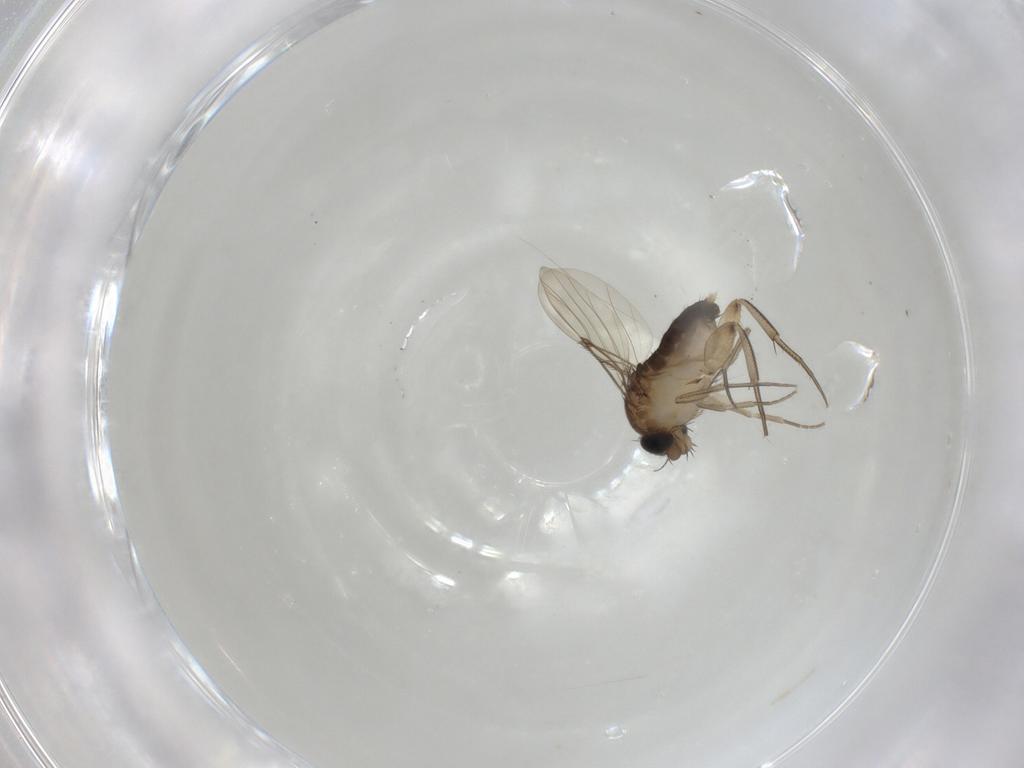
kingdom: Animalia
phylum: Arthropoda
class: Insecta
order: Diptera
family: Phoridae
